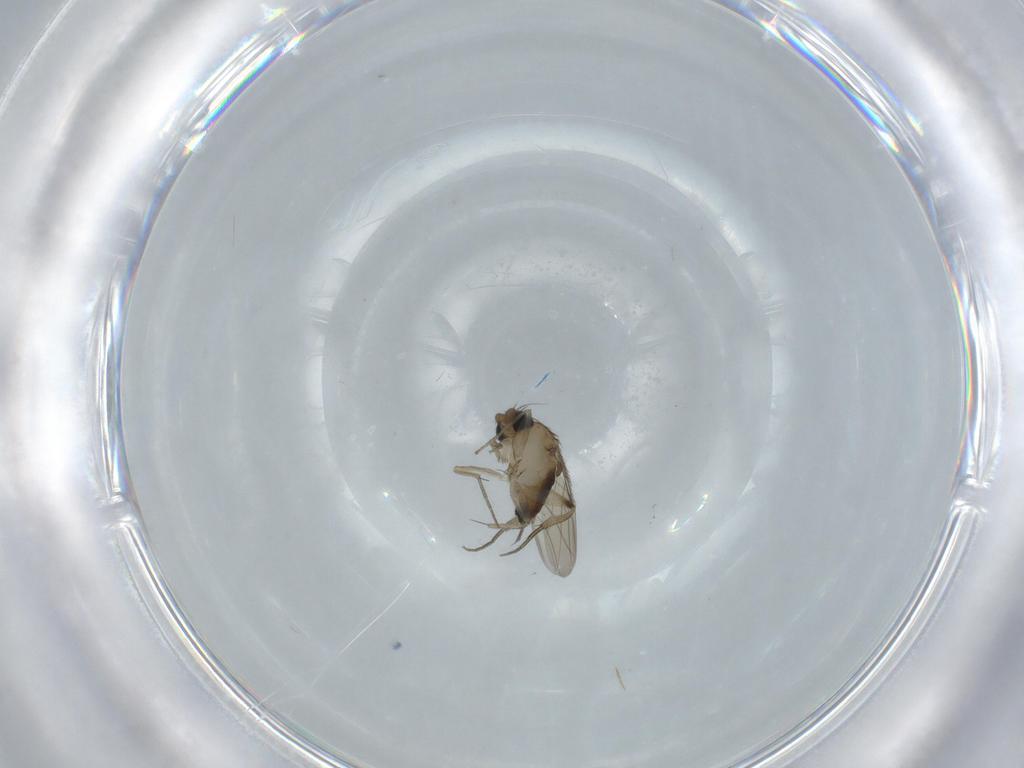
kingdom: Animalia
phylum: Arthropoda
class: Insecta
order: Diptera
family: Phoridae
